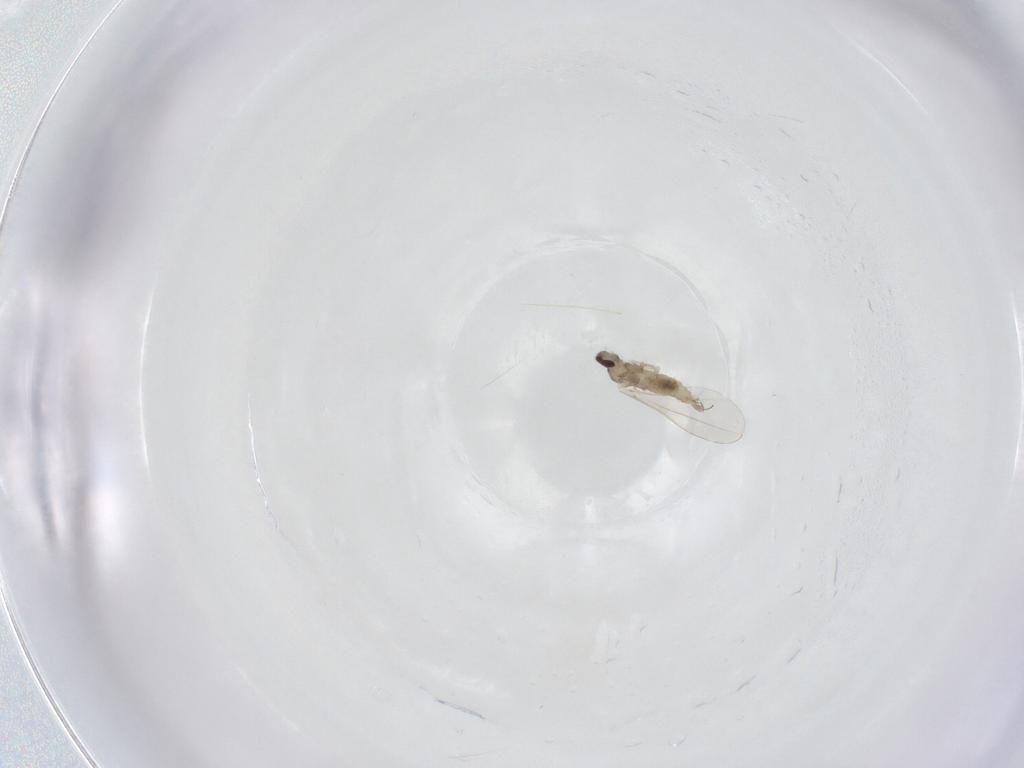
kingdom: Animalia
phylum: Arthropoda
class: Insecta
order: Diptera
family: Cecidomyiidae
